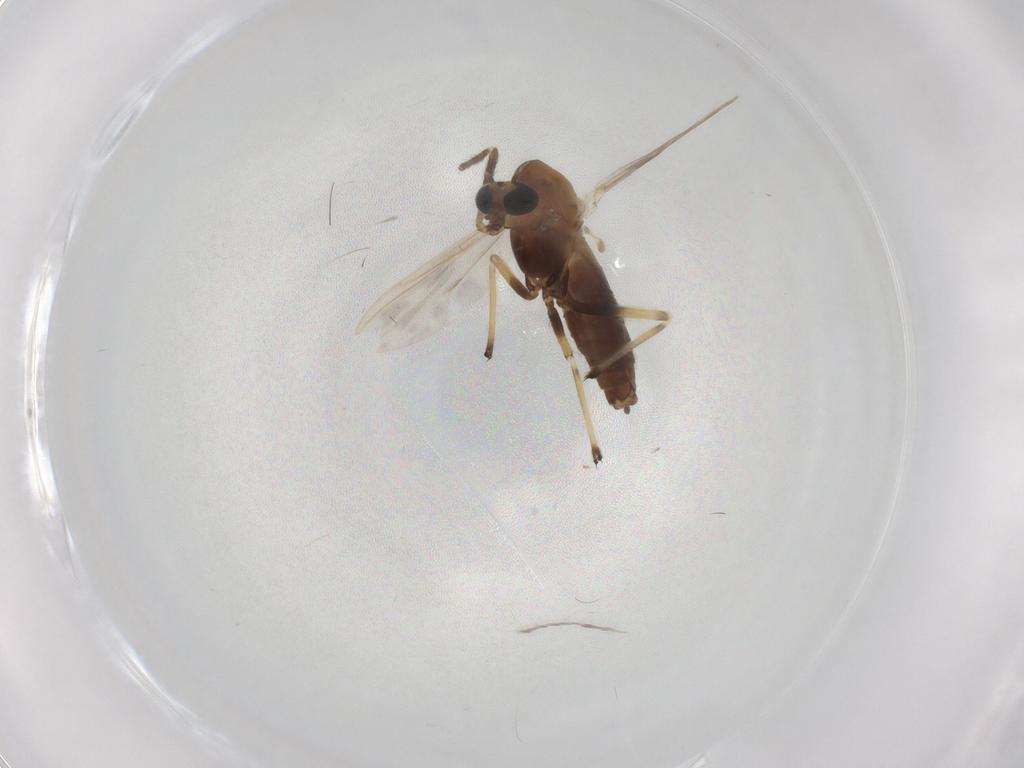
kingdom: Animalia
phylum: Arthropoda
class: Insecta
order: Diptera
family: Chironomidae
